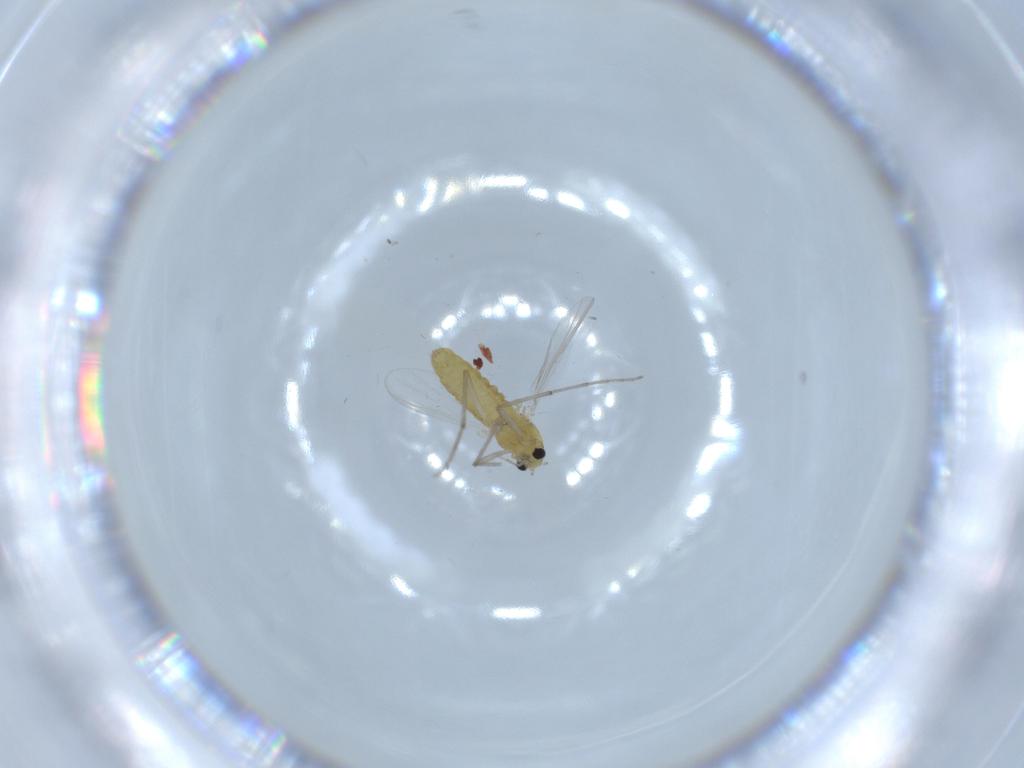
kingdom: Animalia
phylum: Arthropoda
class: Insecta
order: Diptera
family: Chironomidae
